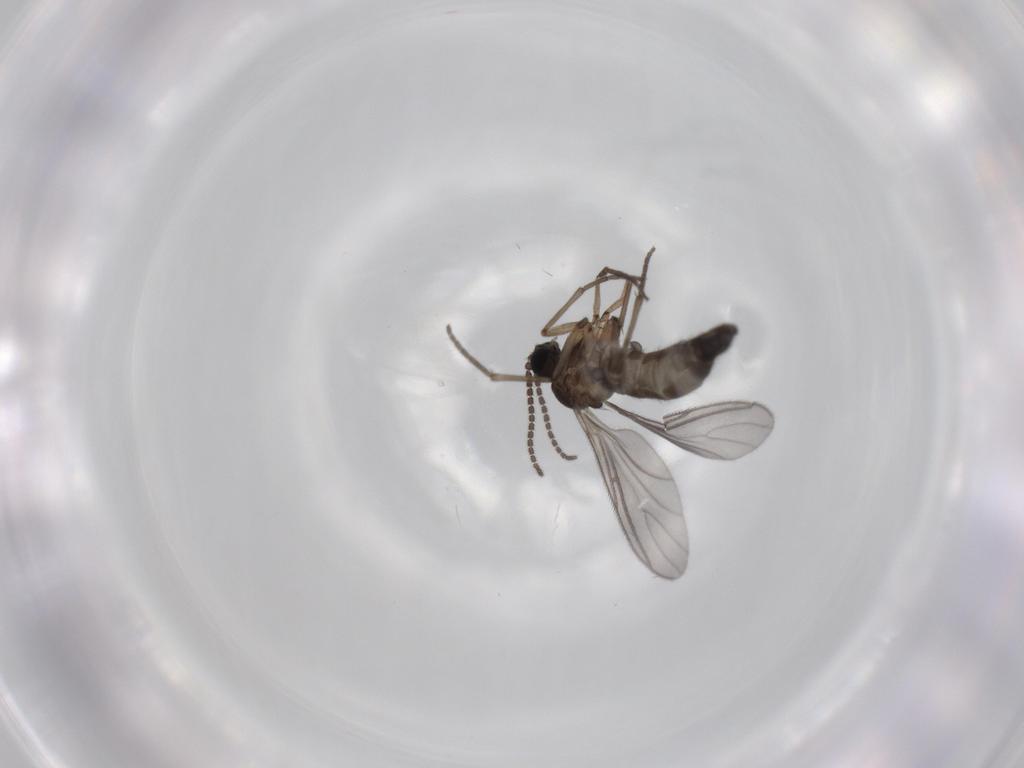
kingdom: Animalia
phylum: Arthropoda
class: Insecta
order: Diptera
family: Sciaridae
